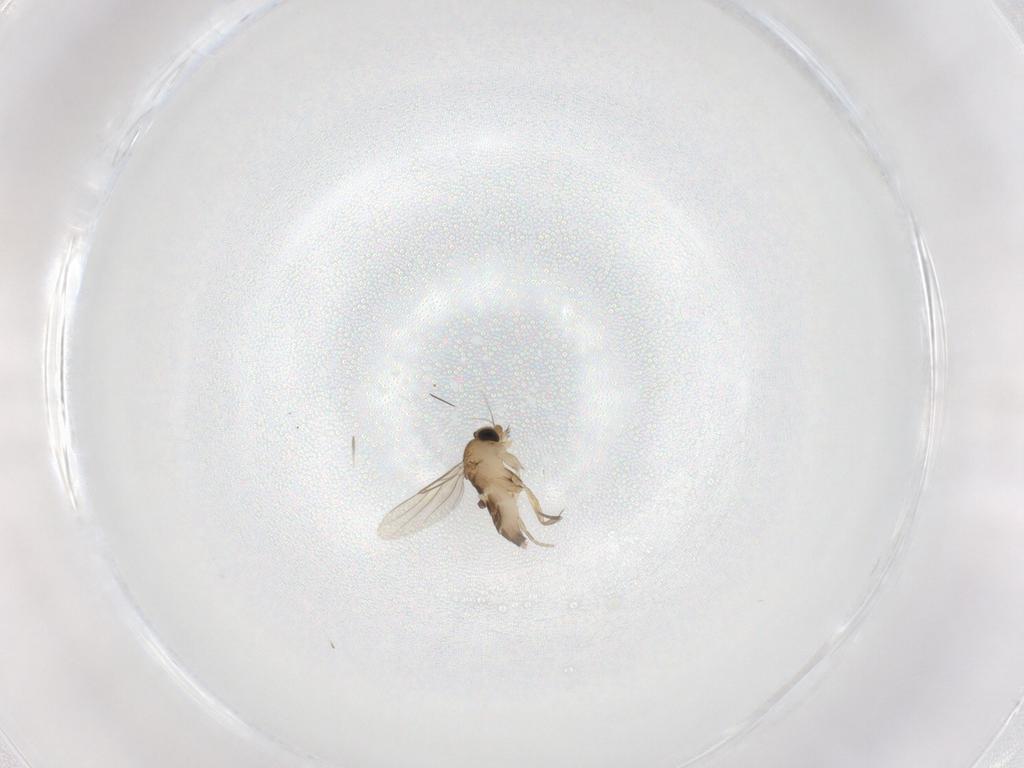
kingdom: Animalia
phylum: Arthropoda
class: Insecta
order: Diptera
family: Phoridae
